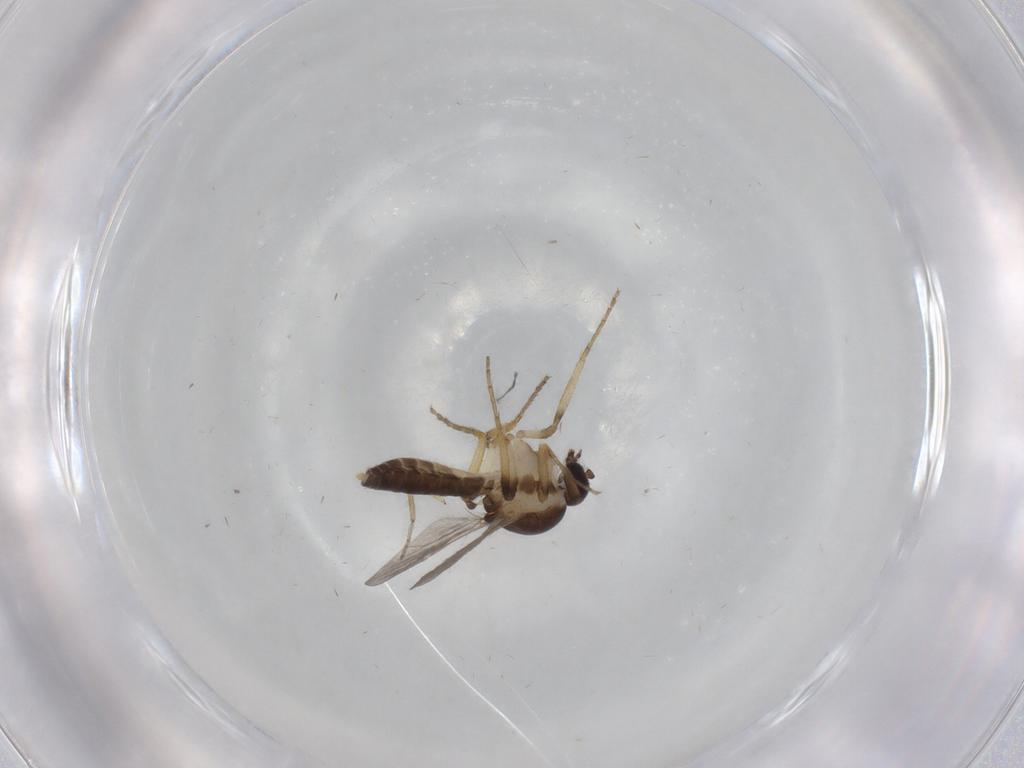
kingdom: Animalia
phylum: Arthropoda
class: Insecta
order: Diptera
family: Ceratopogonidae
